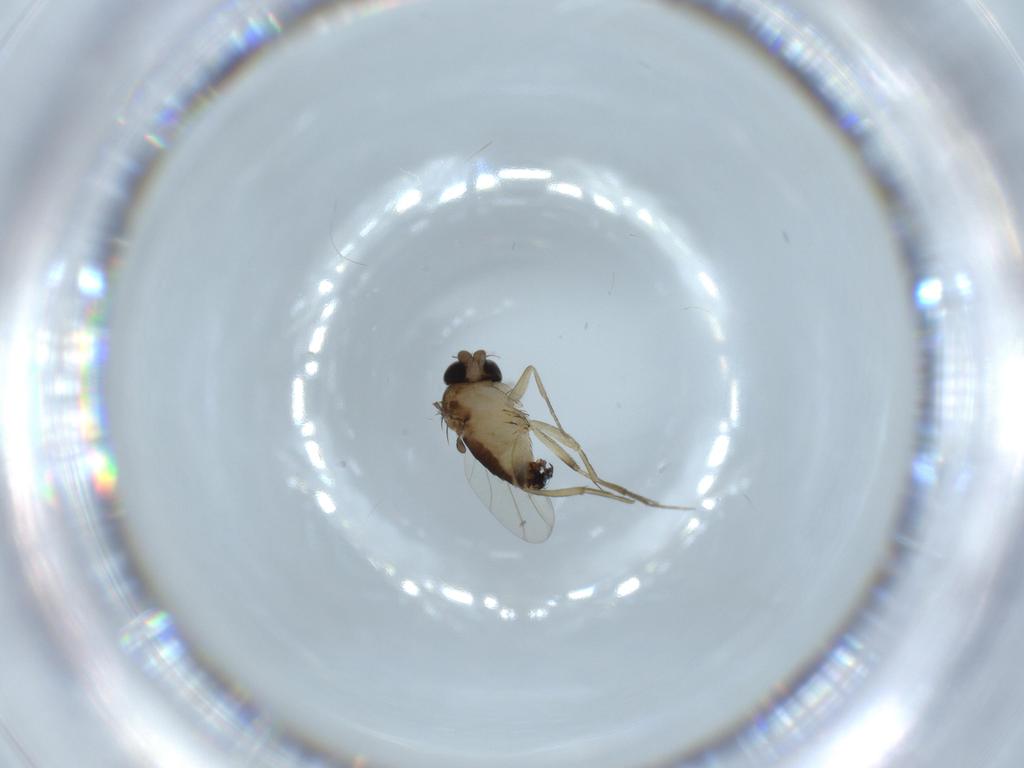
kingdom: Animalia
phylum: Arthropoda
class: Insecta
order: Diptera
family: Phoridae
